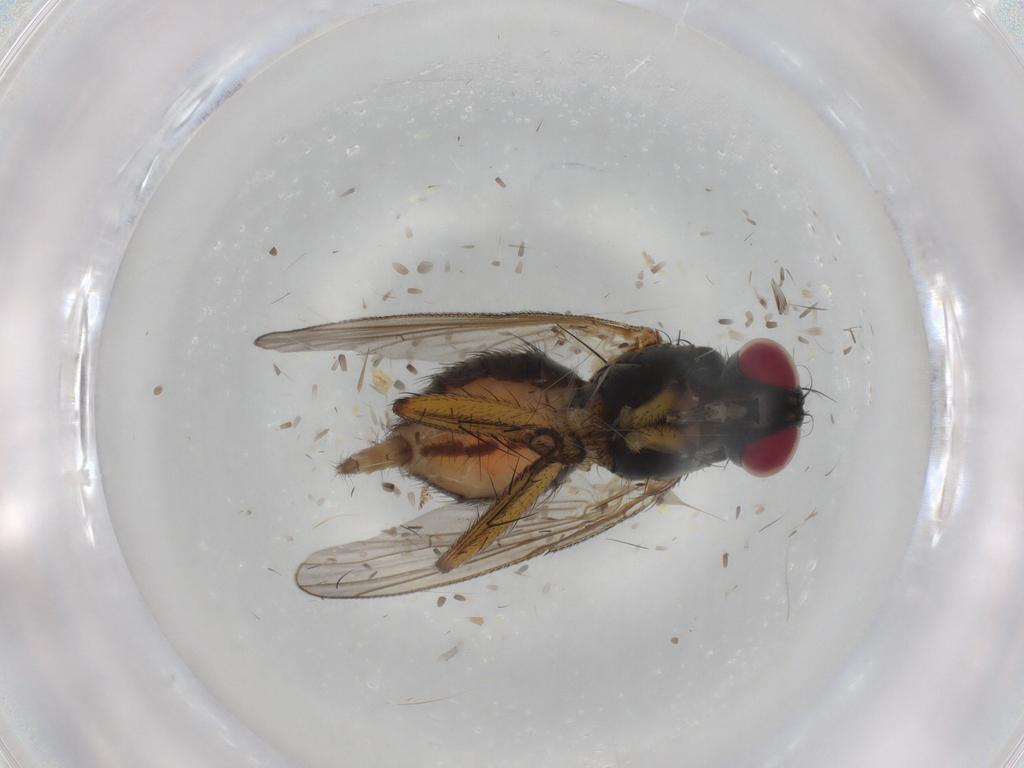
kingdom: Animalia
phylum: Arthropoda
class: Insecta
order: Diptera
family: Muscidae
